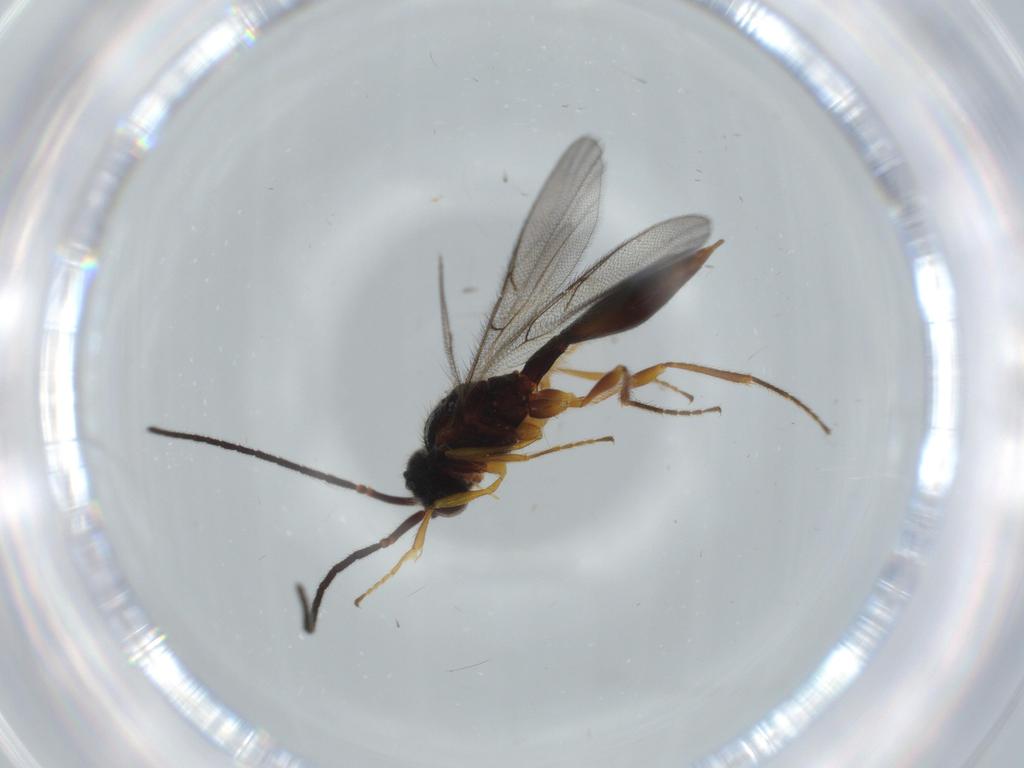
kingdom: Animalia
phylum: Arthropoda
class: Insecta
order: Hymenoptera
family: Diapriidae
